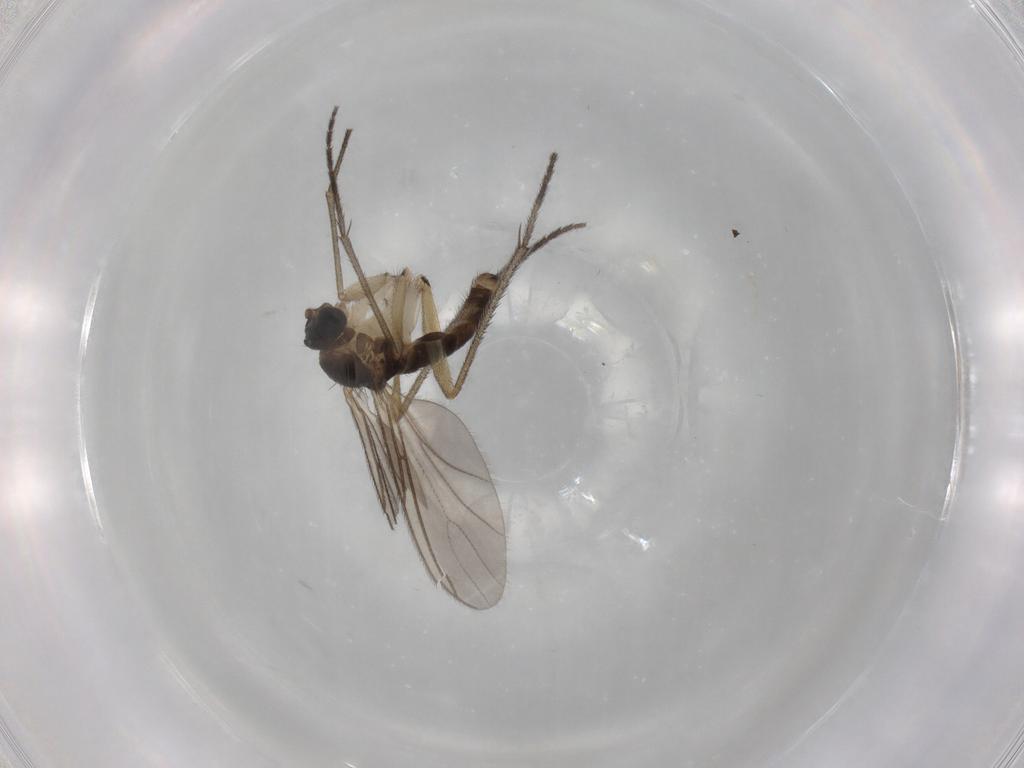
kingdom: Animalia
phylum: Arthropoda
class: Insecta
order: Diptera
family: Sciaridae
